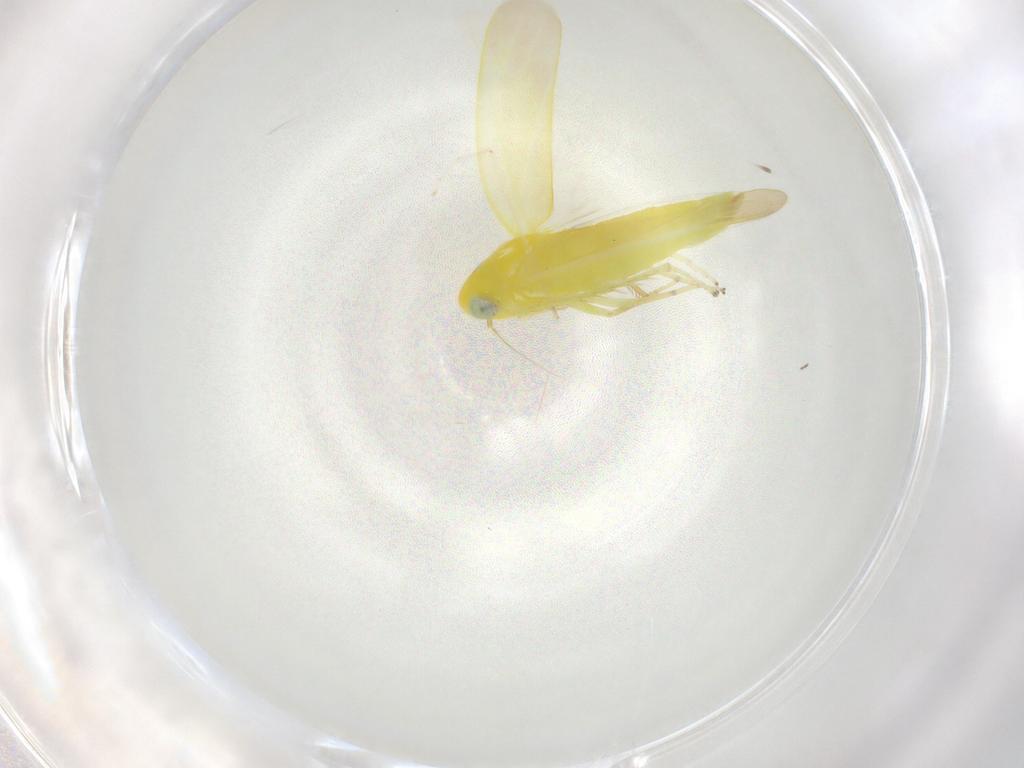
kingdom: Animalia
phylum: Arthropoda
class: Insecta
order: Hemiptera
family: Cicadellidae
